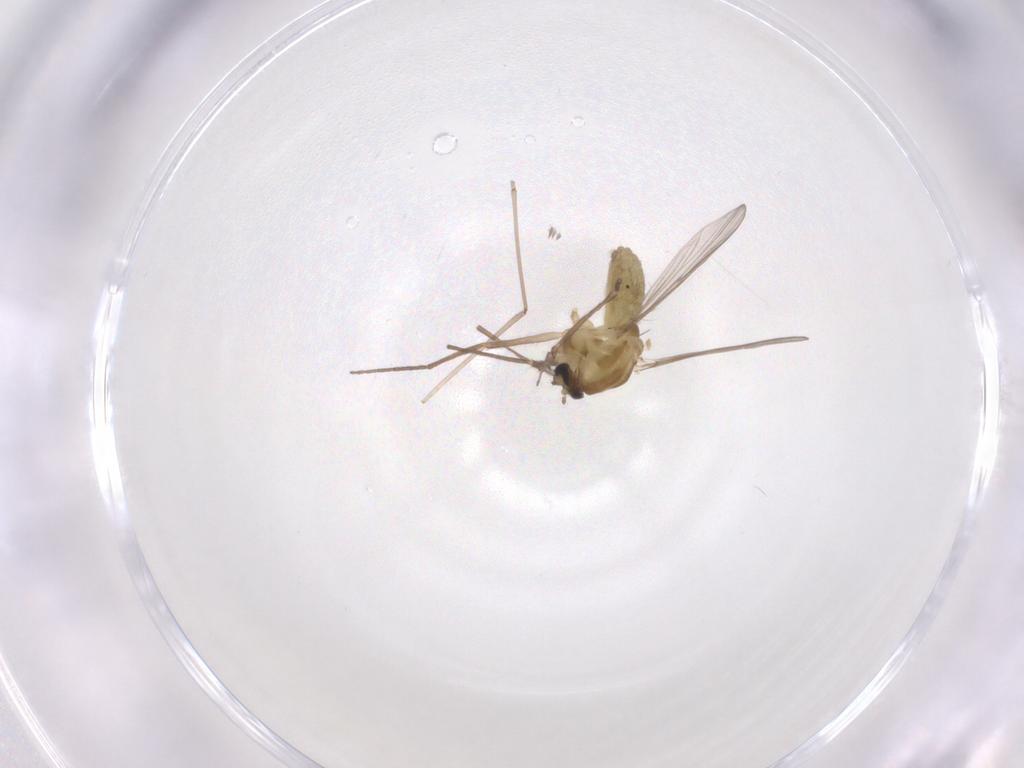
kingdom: Animalia
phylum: Arthropoda
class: Insecta
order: Diptera
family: Chironomidae
